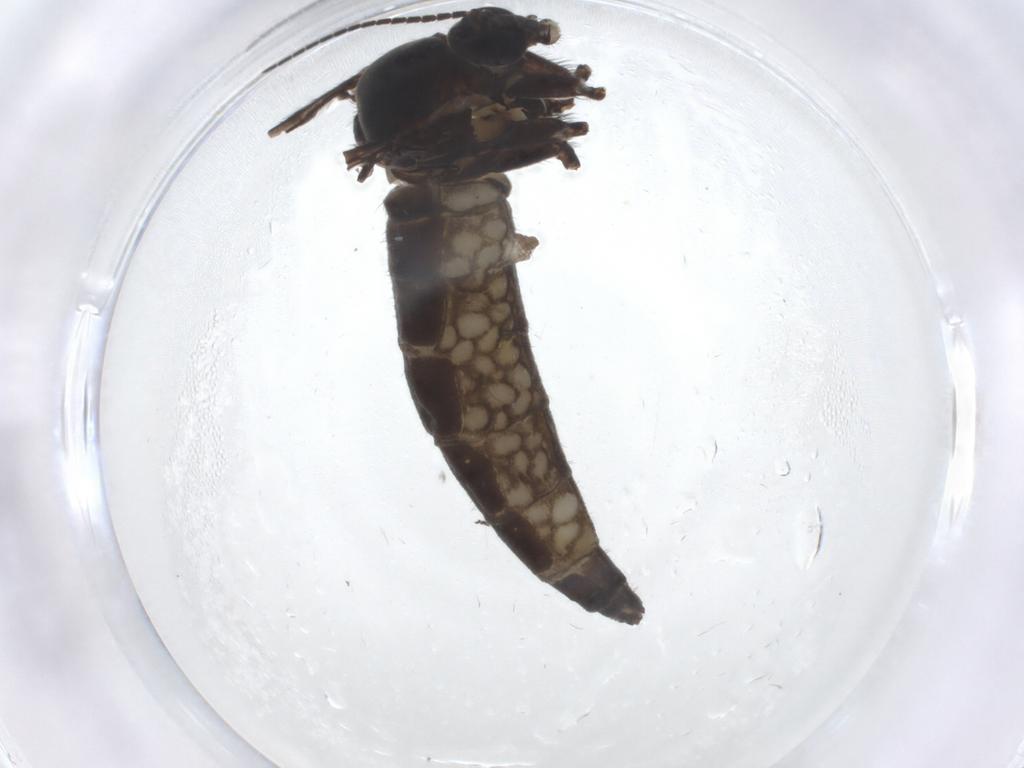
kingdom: Animalia
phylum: Arthropoda
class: Insecta
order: Diptera
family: Sciaridae
